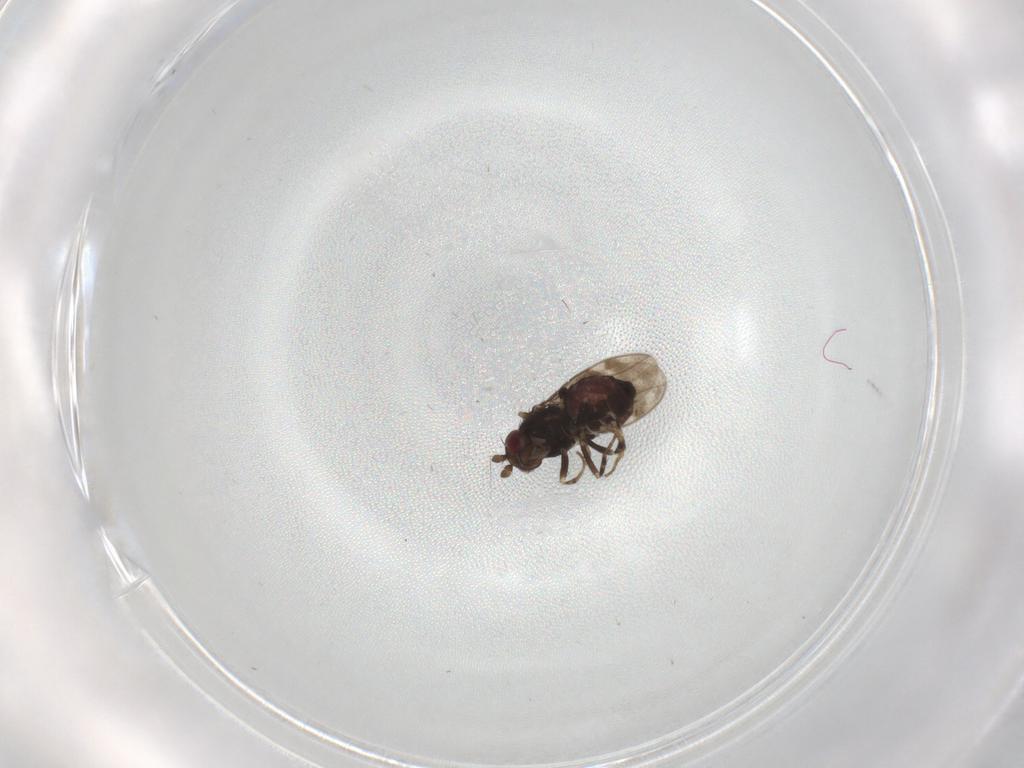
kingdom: Animalia
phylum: Arthropoda
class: Insecta
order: Diptera
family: Sphaeroceridae
